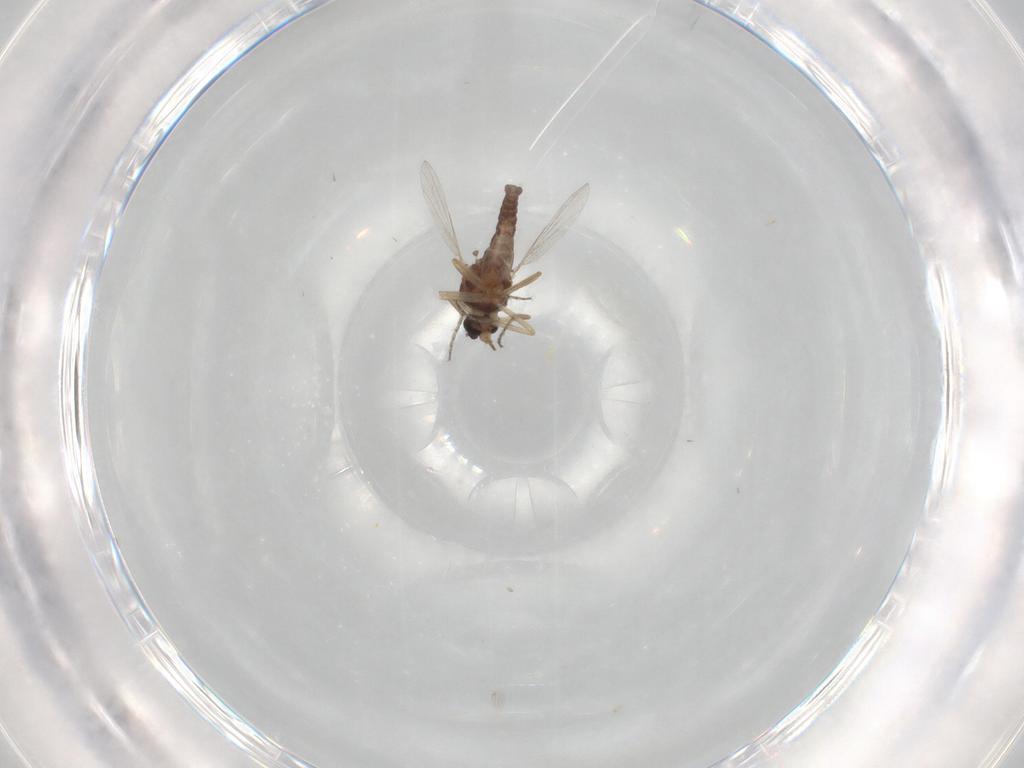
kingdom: Animalia
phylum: Arthropoda
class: Insecta
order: Diptera
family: Ceratopogonidae
